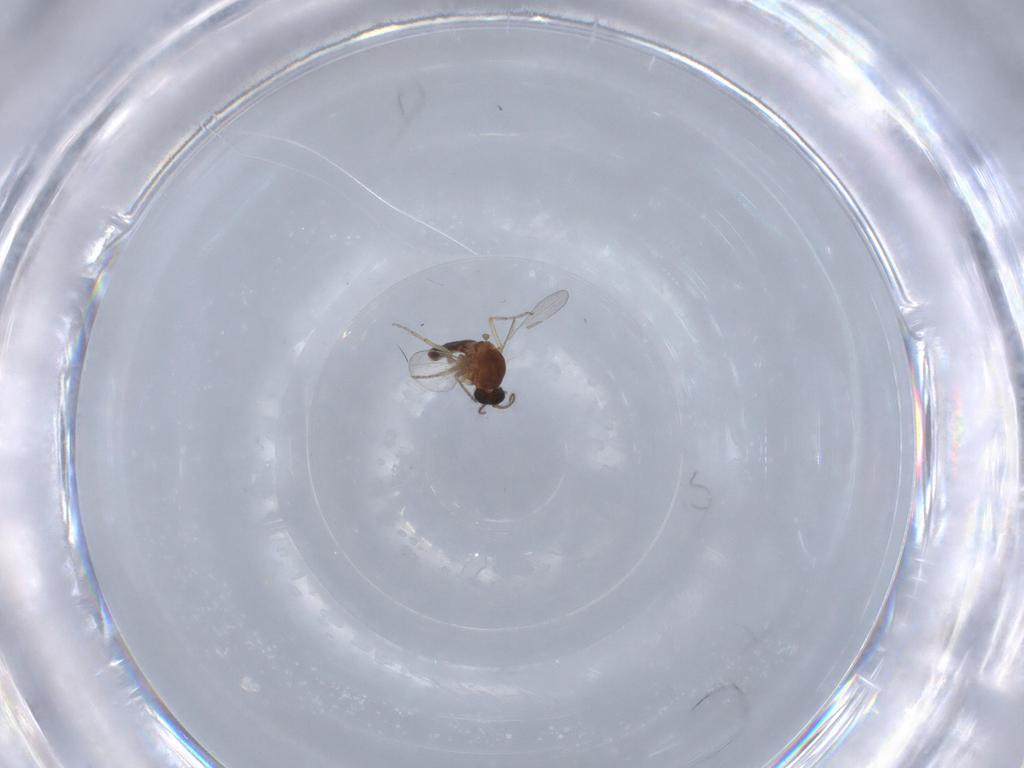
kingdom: Animalia
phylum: Arthropoda
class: Insecta
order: Diptera
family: Ceratopogonidae
